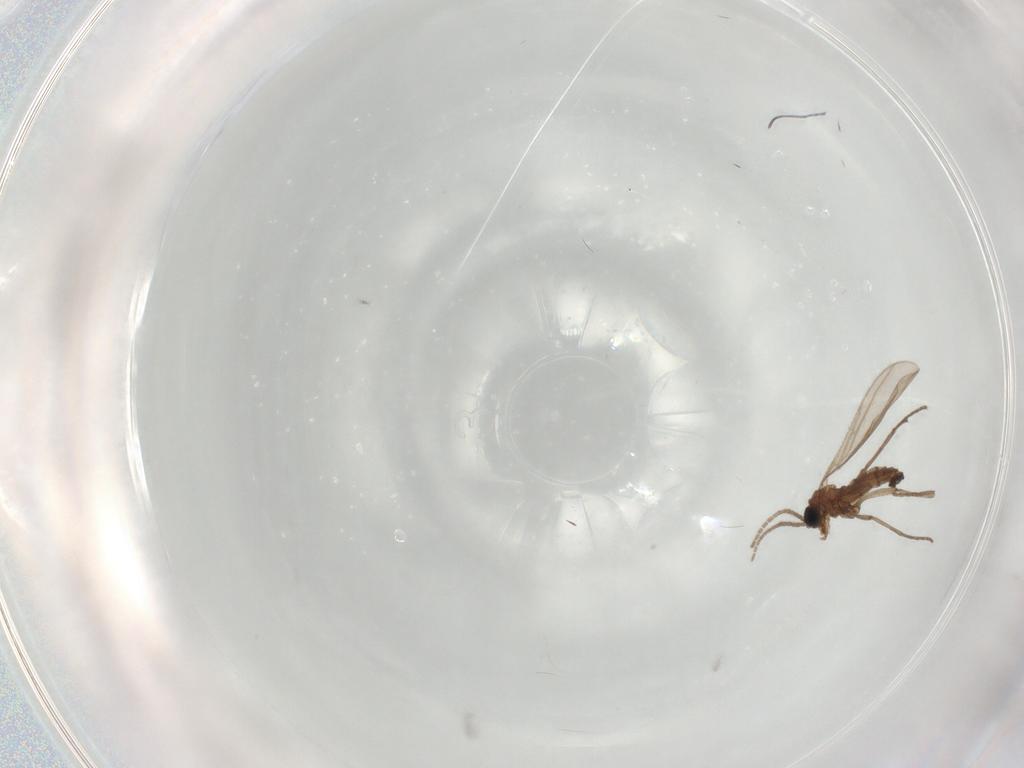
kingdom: Animalia
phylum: Arthropoda
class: Insecta
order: Diptera
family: Sciaridae
